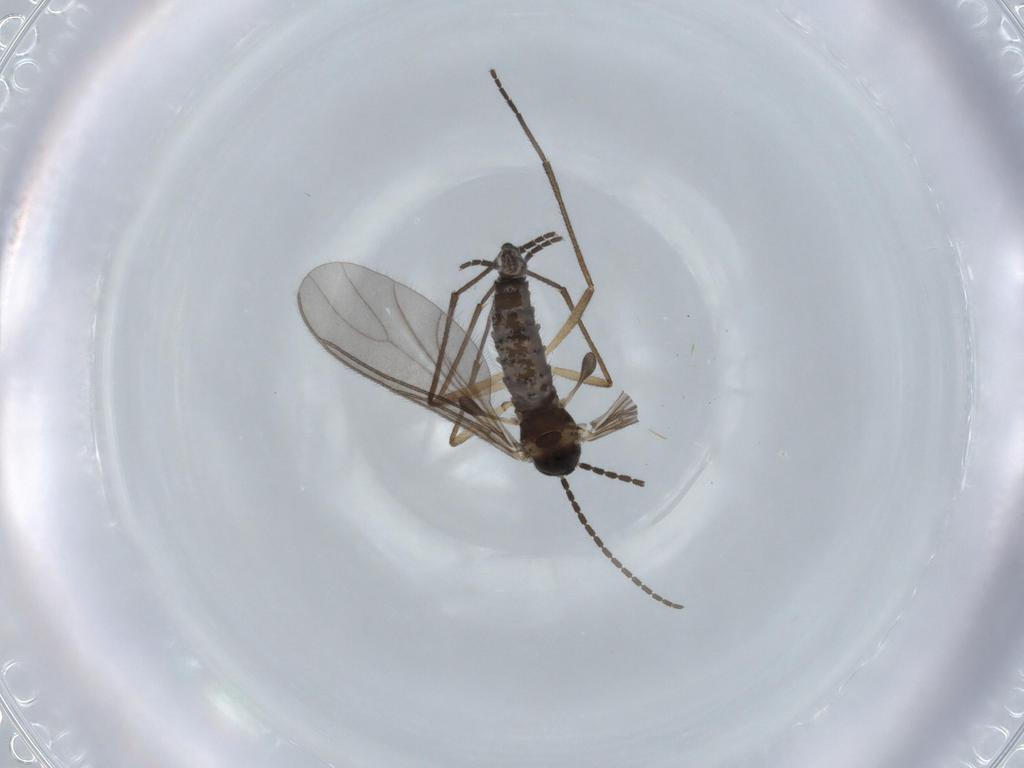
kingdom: Animalia
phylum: Arthropoda
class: Insecta
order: Diptera
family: Sciaridae
